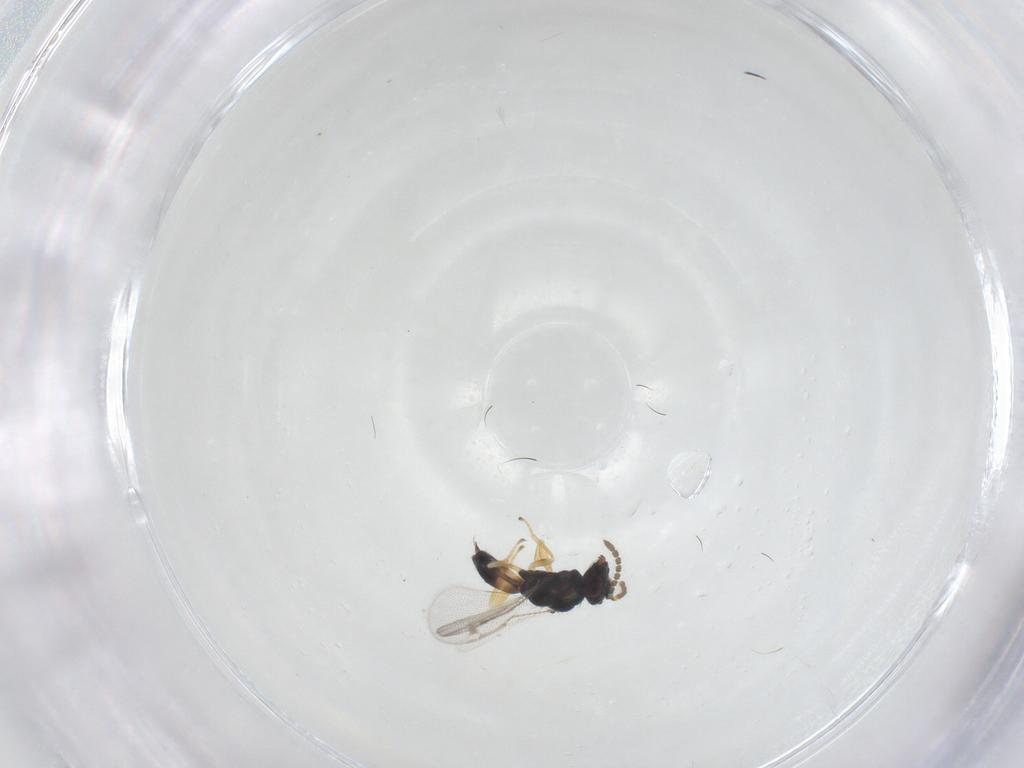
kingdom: Animalia
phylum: Arthropoda
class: Insecta
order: Hymenoptera
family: Pirenidae
